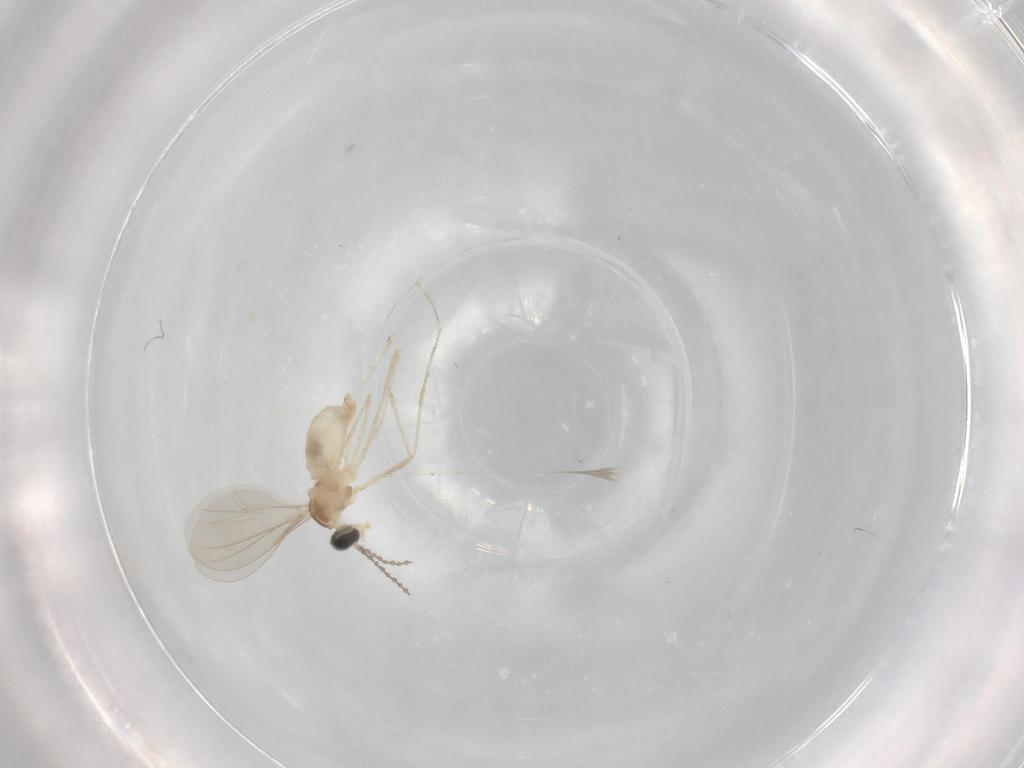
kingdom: Animalia
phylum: Arthropoda
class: Insecta
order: Diptera
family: Cecidomyiidae
